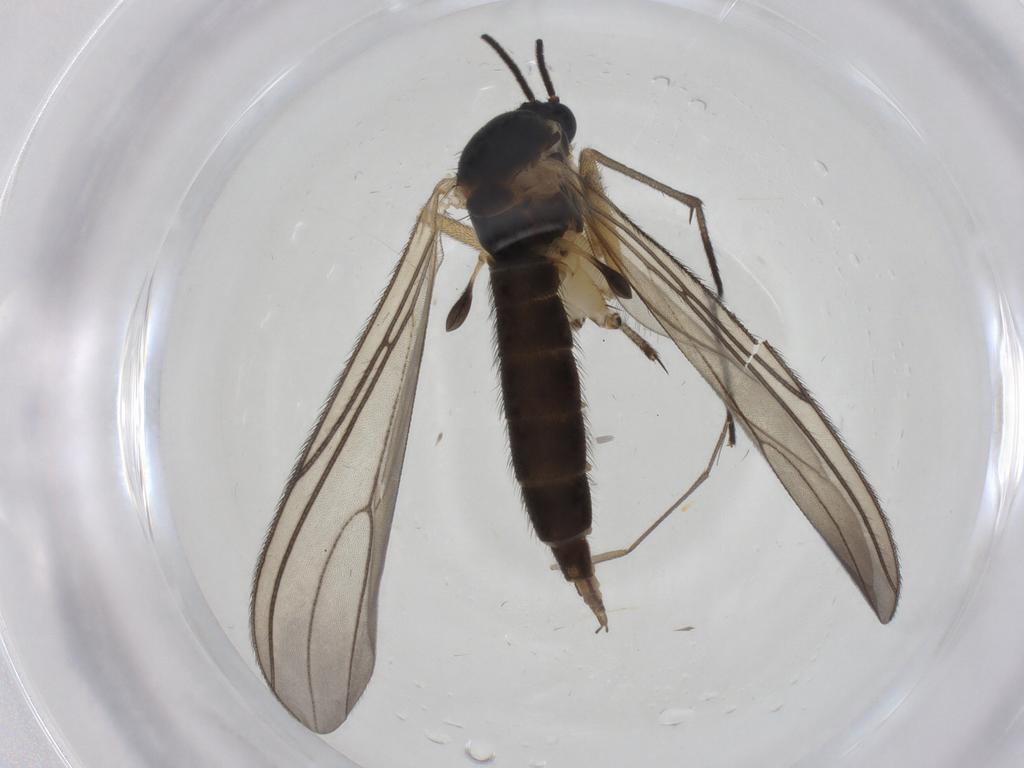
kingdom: Animalia
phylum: Arthropoda
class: Insecta
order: Diptera
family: Sciaridae
